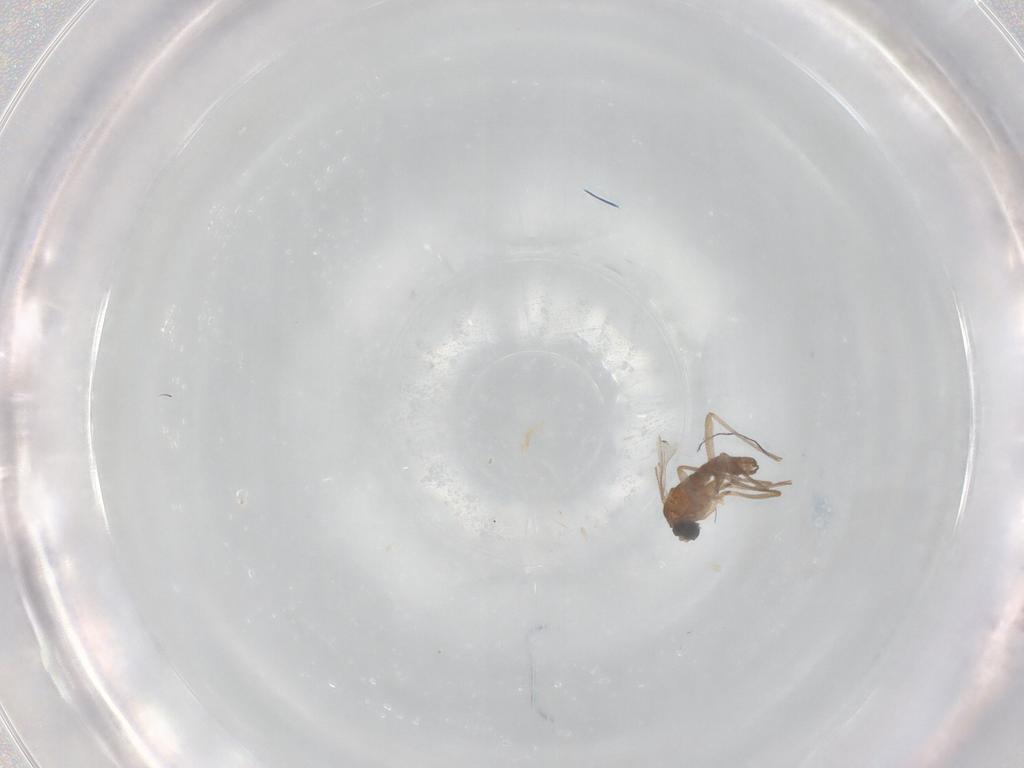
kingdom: Animalia
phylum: Arthropoda
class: Insecta
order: Diptera
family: Sciaridae
